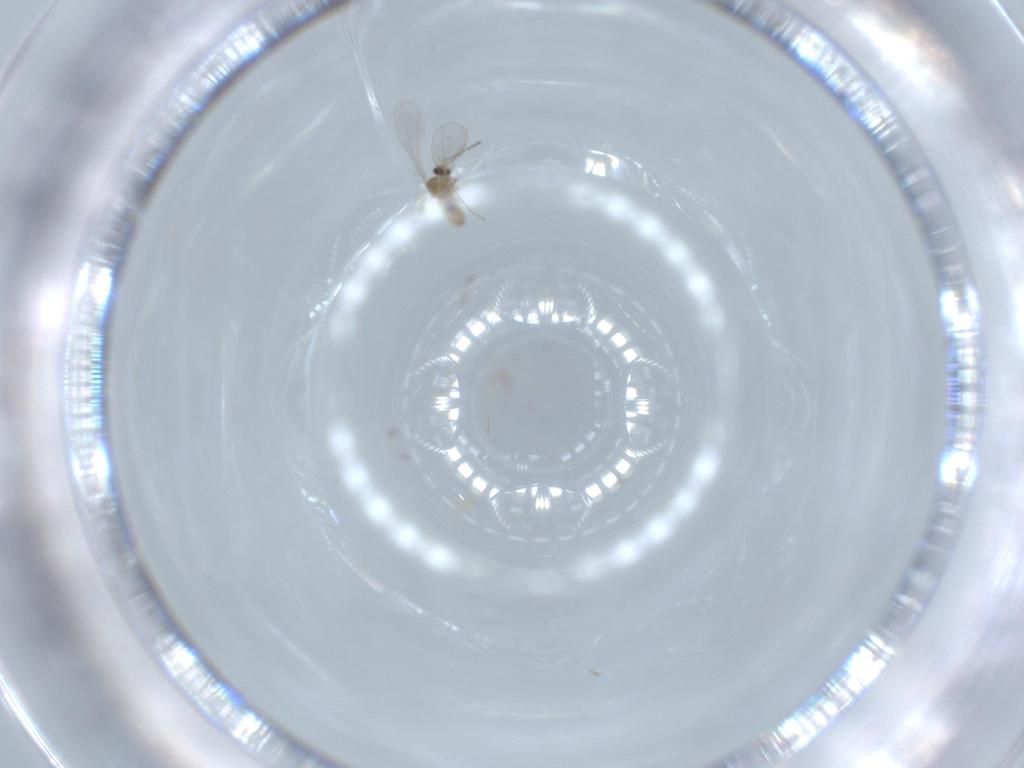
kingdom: Animalia
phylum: Arthropoda
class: Insecta
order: Diptera
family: Cecidomyiidae
